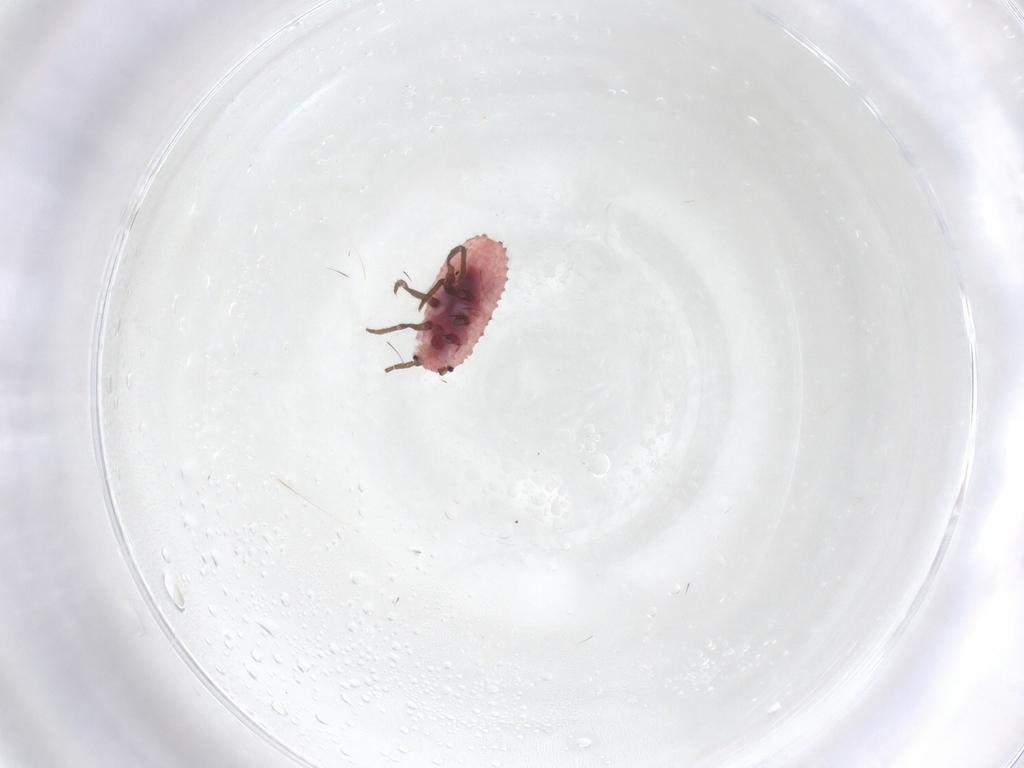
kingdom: Animalia
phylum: Arthropoda
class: Insecta
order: Hemiptera
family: Putoidae
